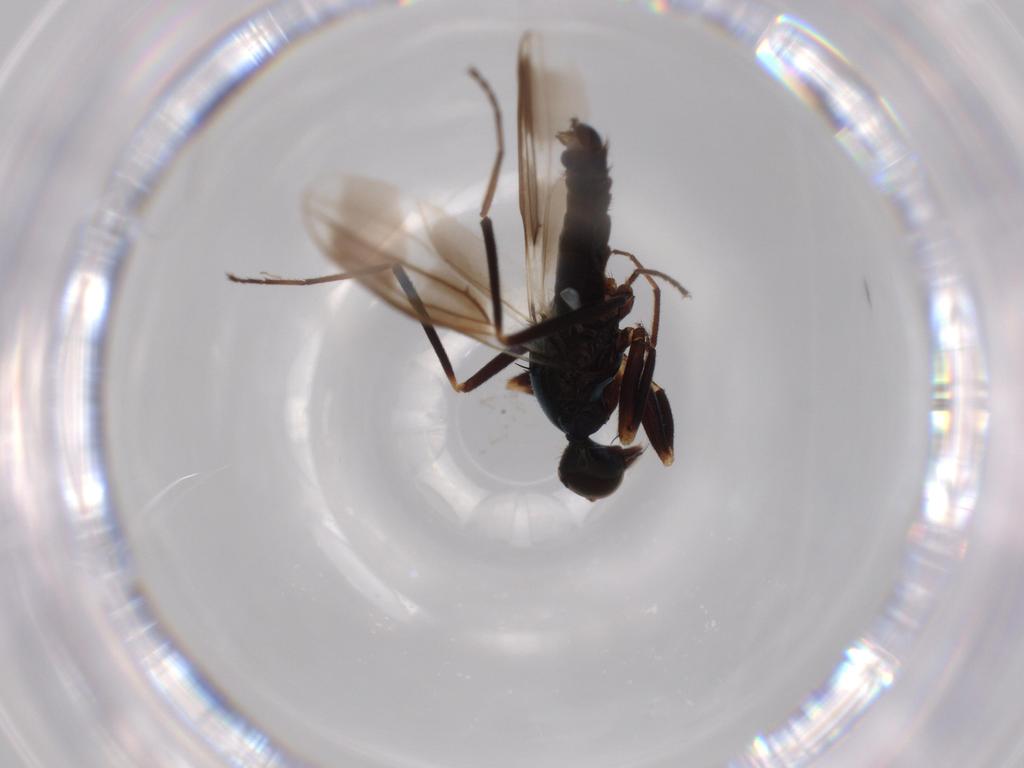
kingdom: Animalia
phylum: Arthropoda
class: Insecta
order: Diptera
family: Hybotidae
